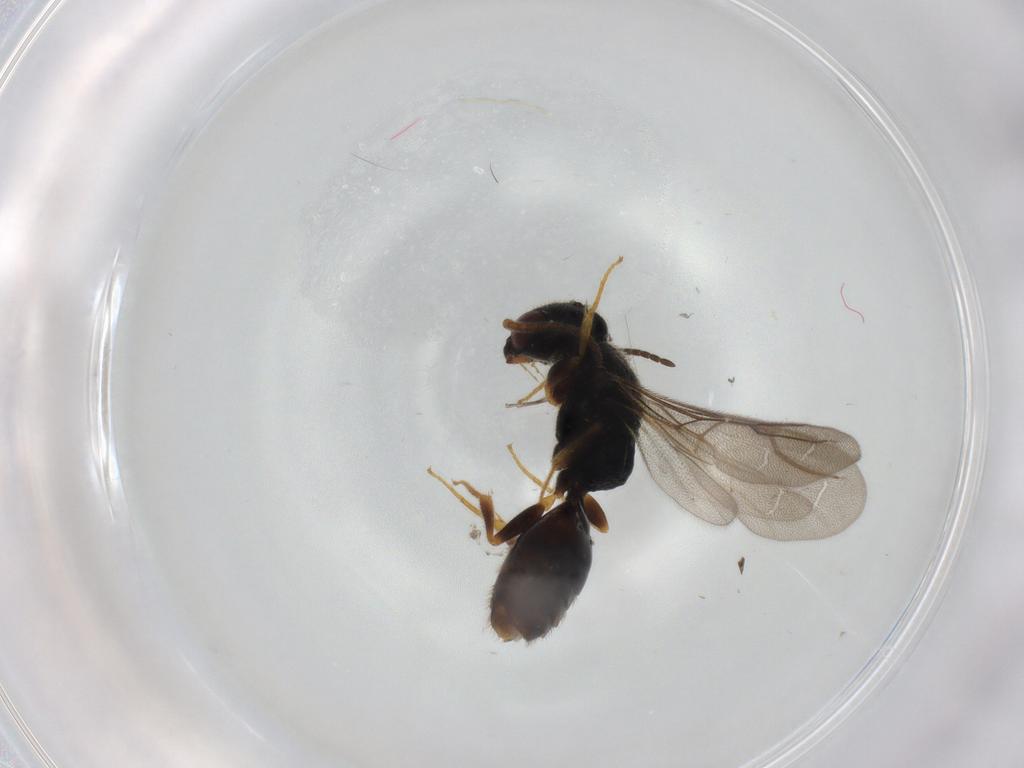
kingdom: Animalia
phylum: Arthropoda
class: Insecta
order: Hymenoptera
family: Bethylidae
